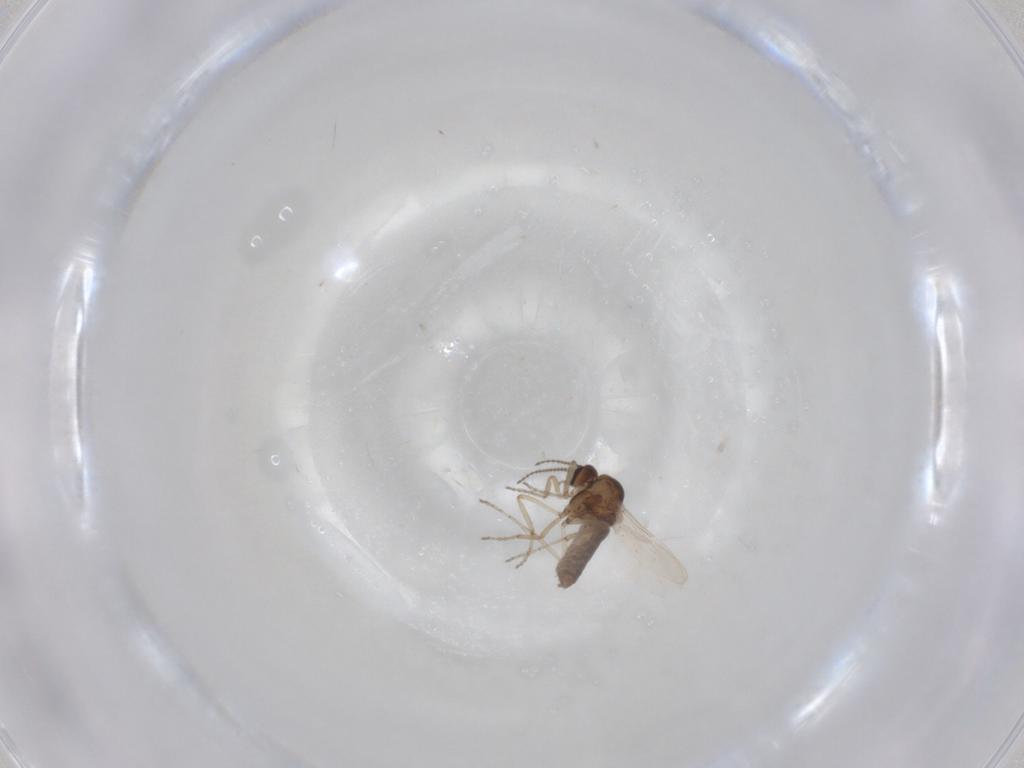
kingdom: Animalia
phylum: Arthropoda
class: Insecta
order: Diptera
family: Ceratopogonidae
